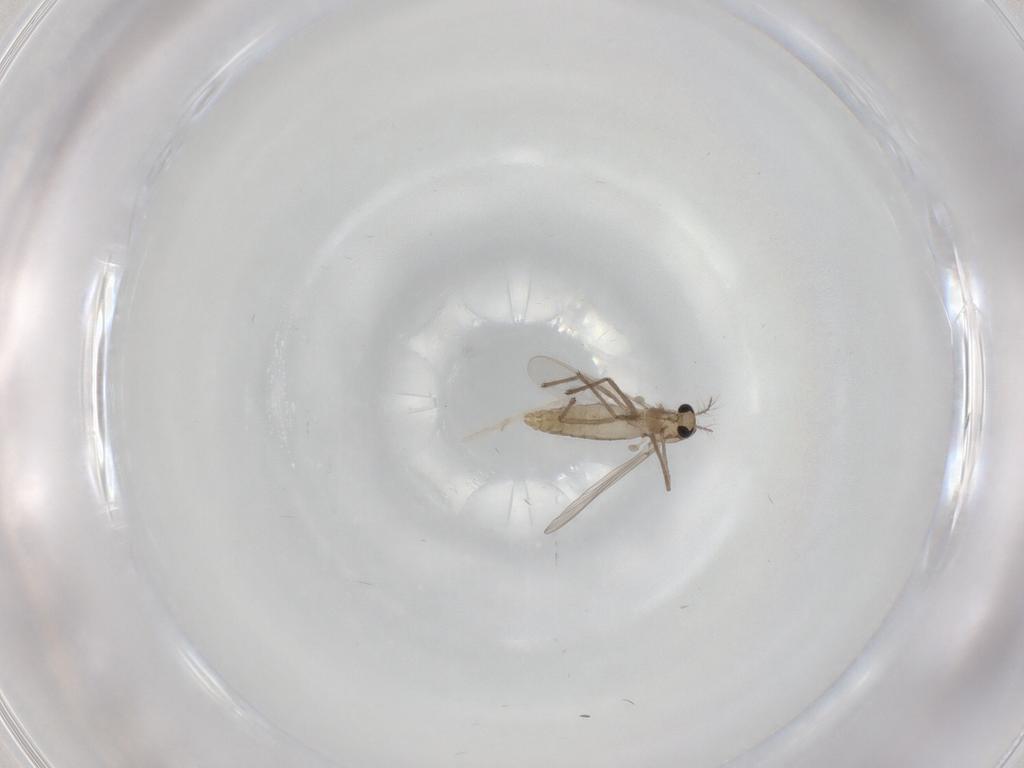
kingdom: Animalia
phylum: Arthropoda
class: Insecta
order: Diptera
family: Chironomidae
